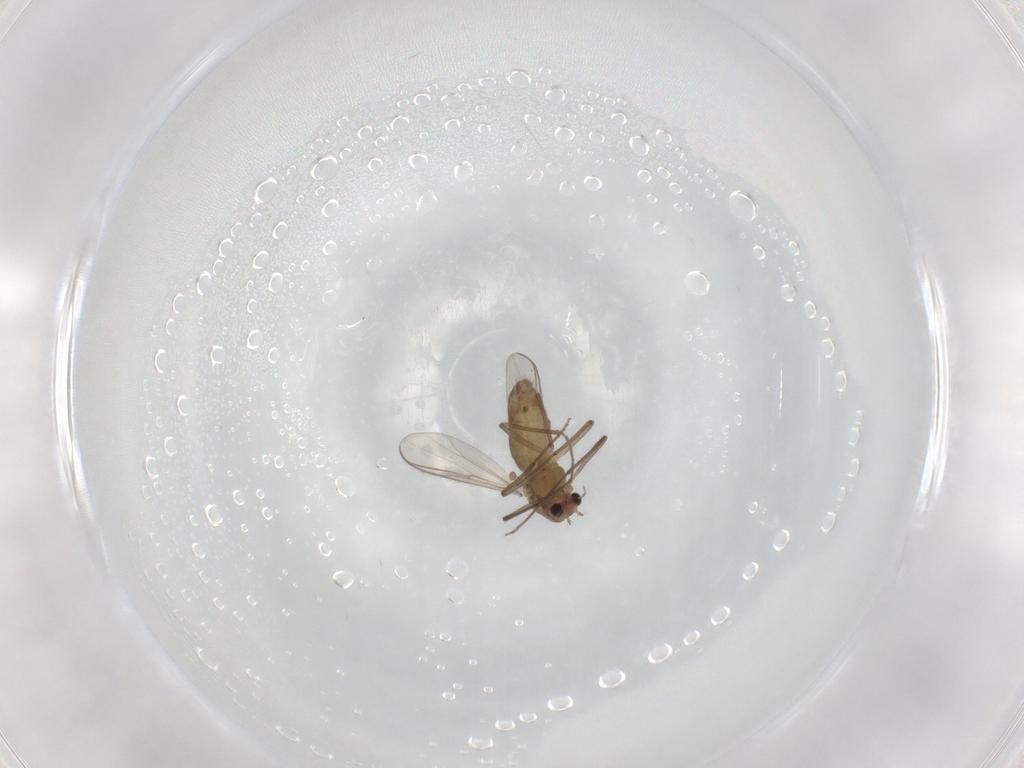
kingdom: Animalia
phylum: Arthropoda
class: Insecta
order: Diptera
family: Chironomidae
